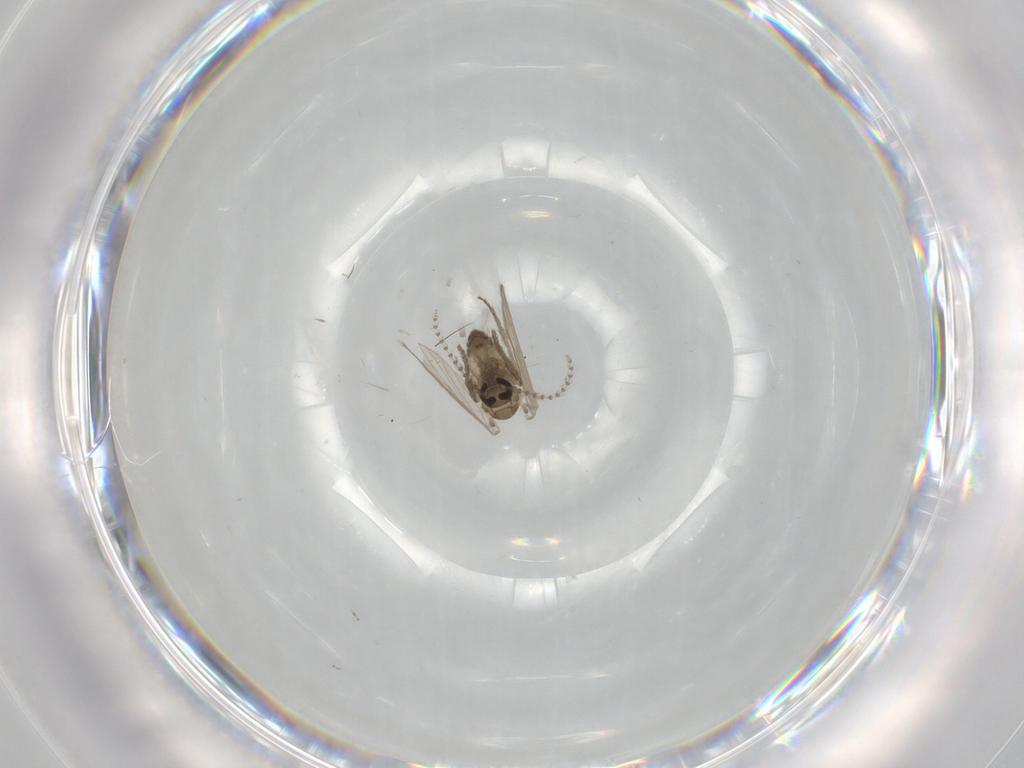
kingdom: Animalia
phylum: Arthropoda
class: Insecta
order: Diptera
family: Psychodidae
